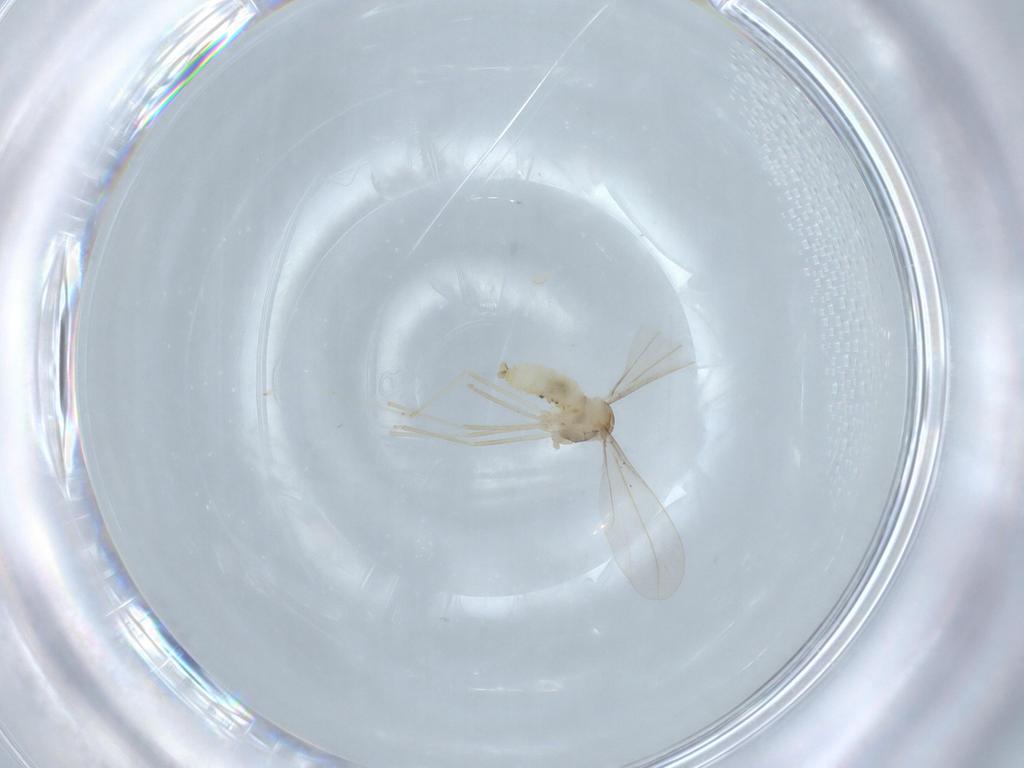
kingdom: Animalia
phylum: Arthropoda
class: Insecta
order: Diptera
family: Cecidomyiidae
